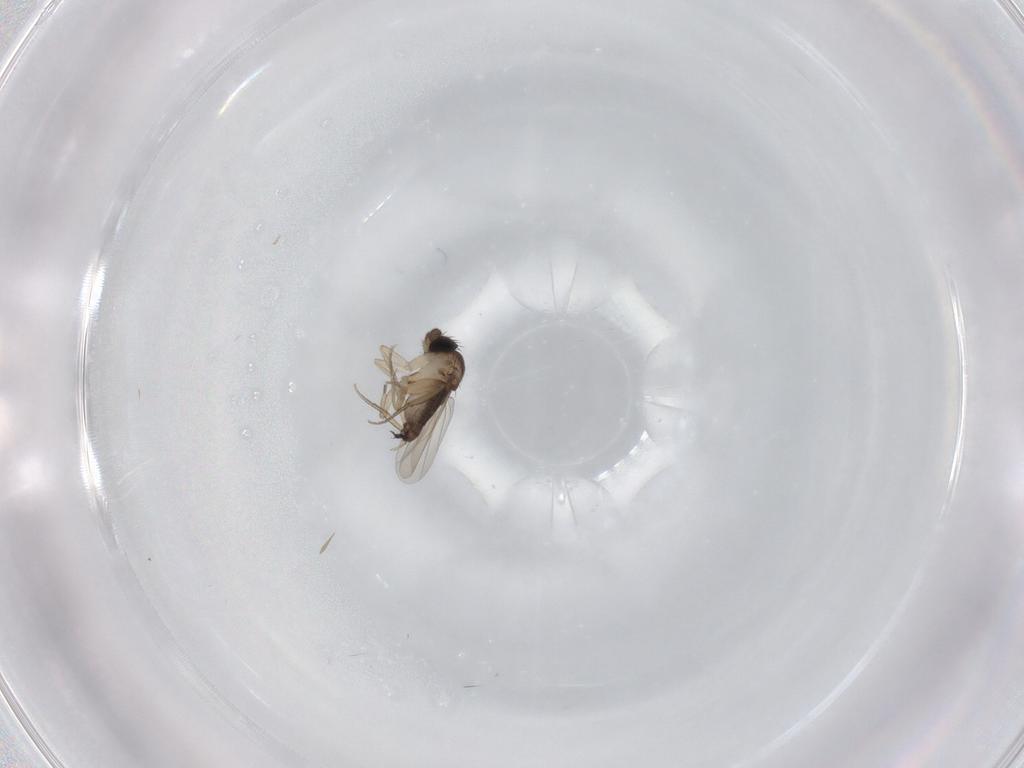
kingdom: Animalia
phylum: Arthropoda
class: Insecta
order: Diptera
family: Phoridae
